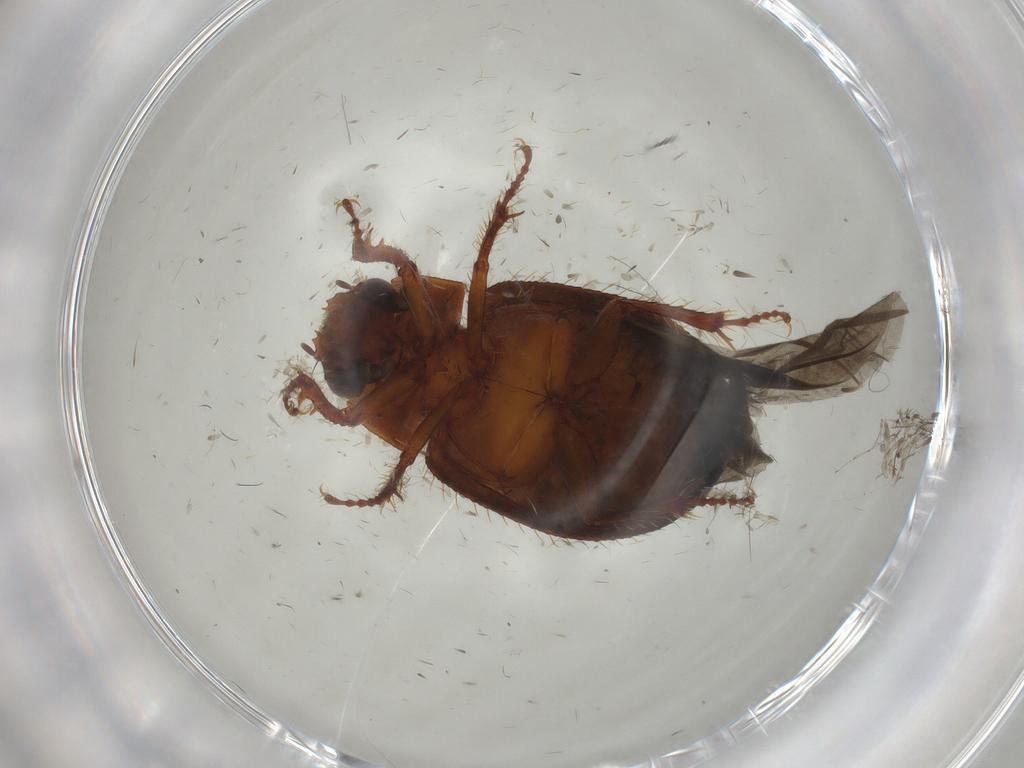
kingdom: Animalia
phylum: Arthropoda
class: Insecta
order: Coleoptera
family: Hybosoridae
